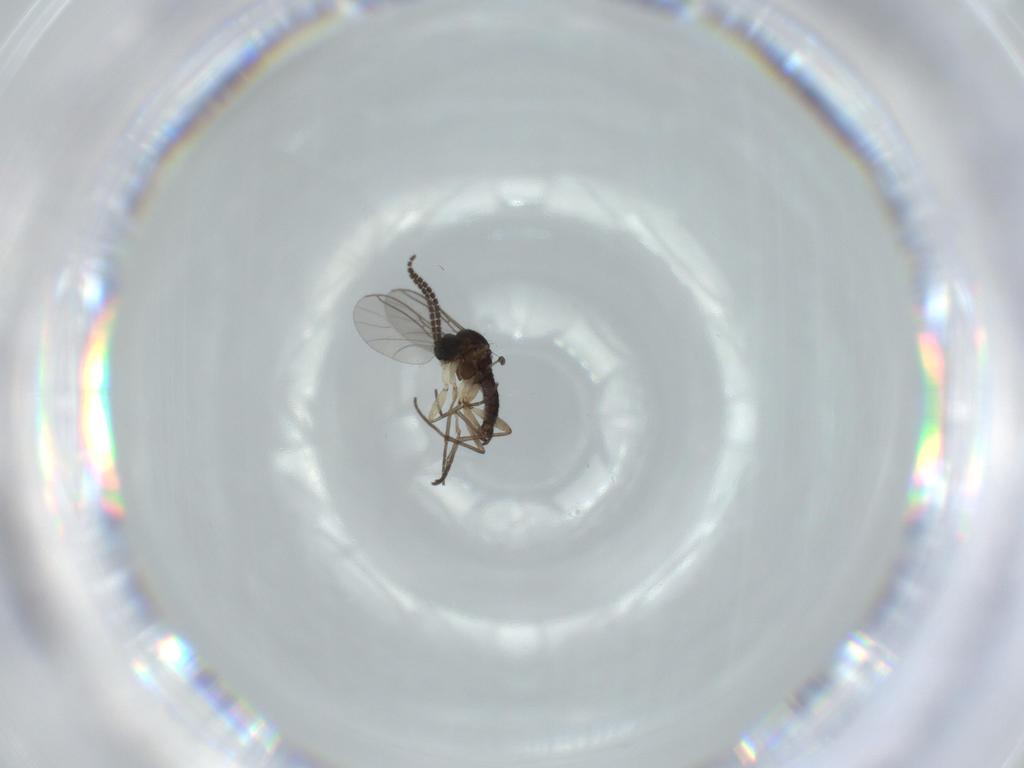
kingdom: Animalia
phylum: Arthropoda
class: Insecta
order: Diptera
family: Sciaridae
